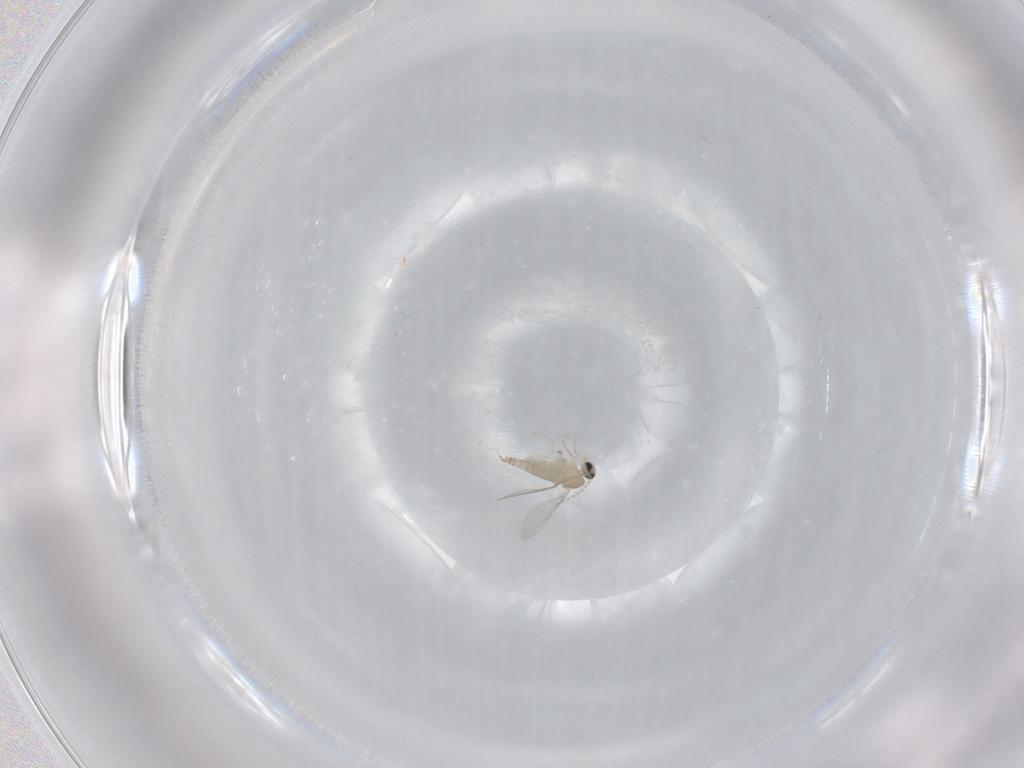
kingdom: Animalia
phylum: Arthropoda
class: Insecta
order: Diptera
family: Cecidomyiidae
